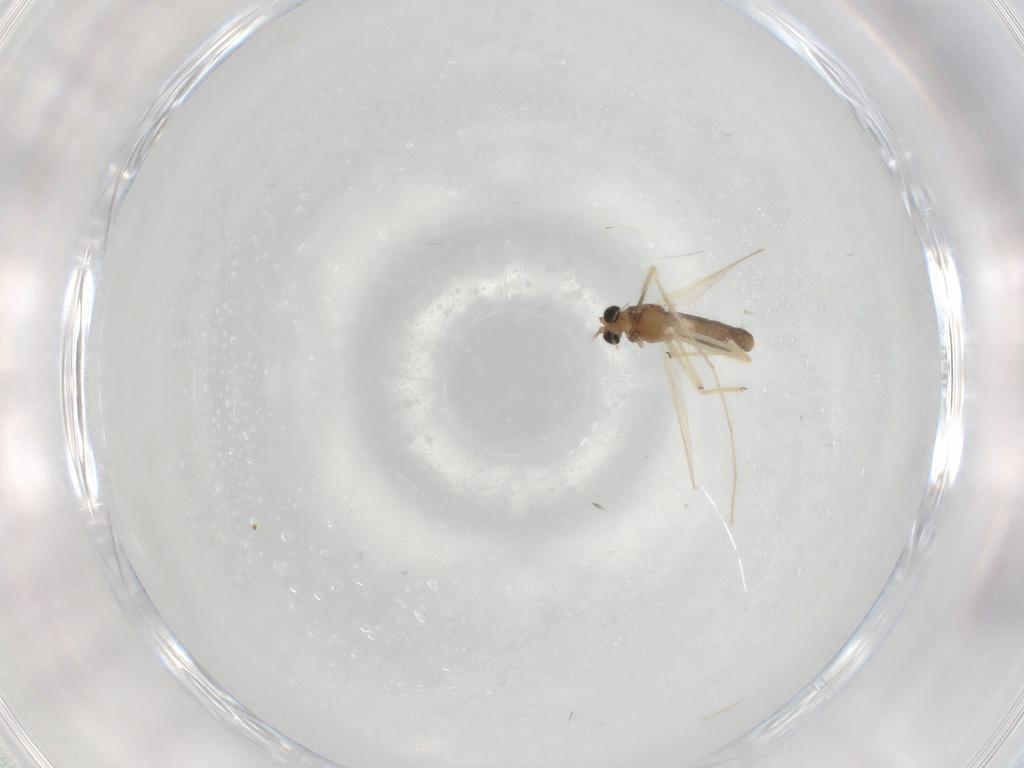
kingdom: Animalia
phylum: Arthropoda
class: Insecta
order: Diptera
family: Chironomidae
